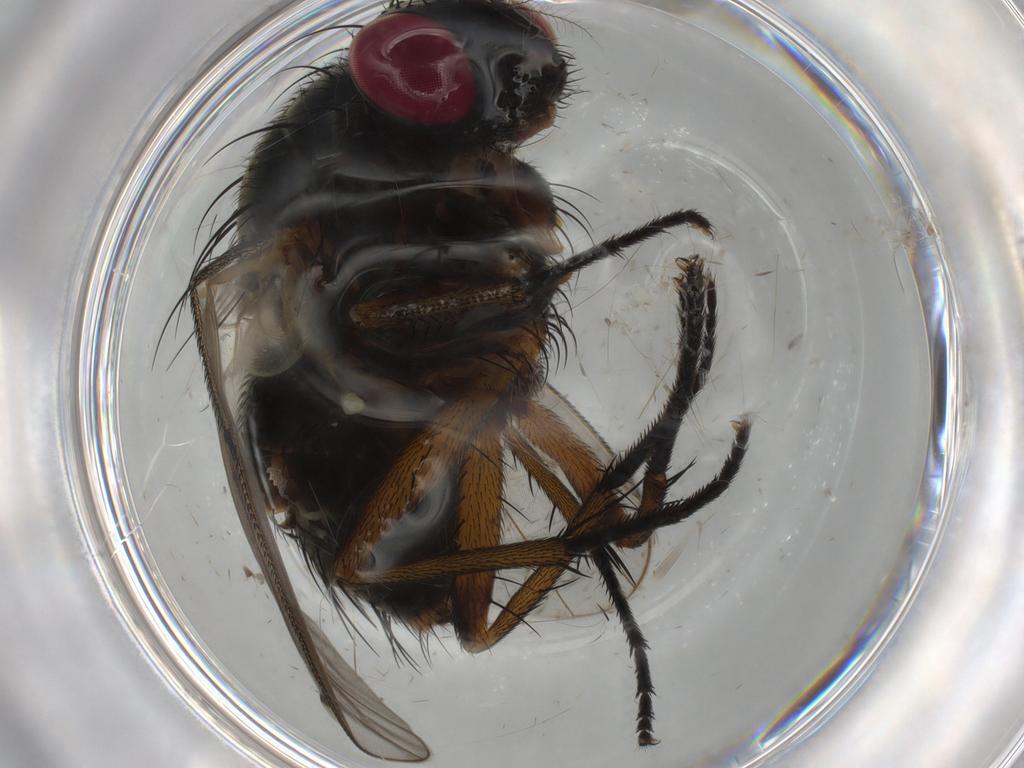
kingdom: Animalia
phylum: Arthropoda
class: Insecta
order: Diptera
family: Muscidae
